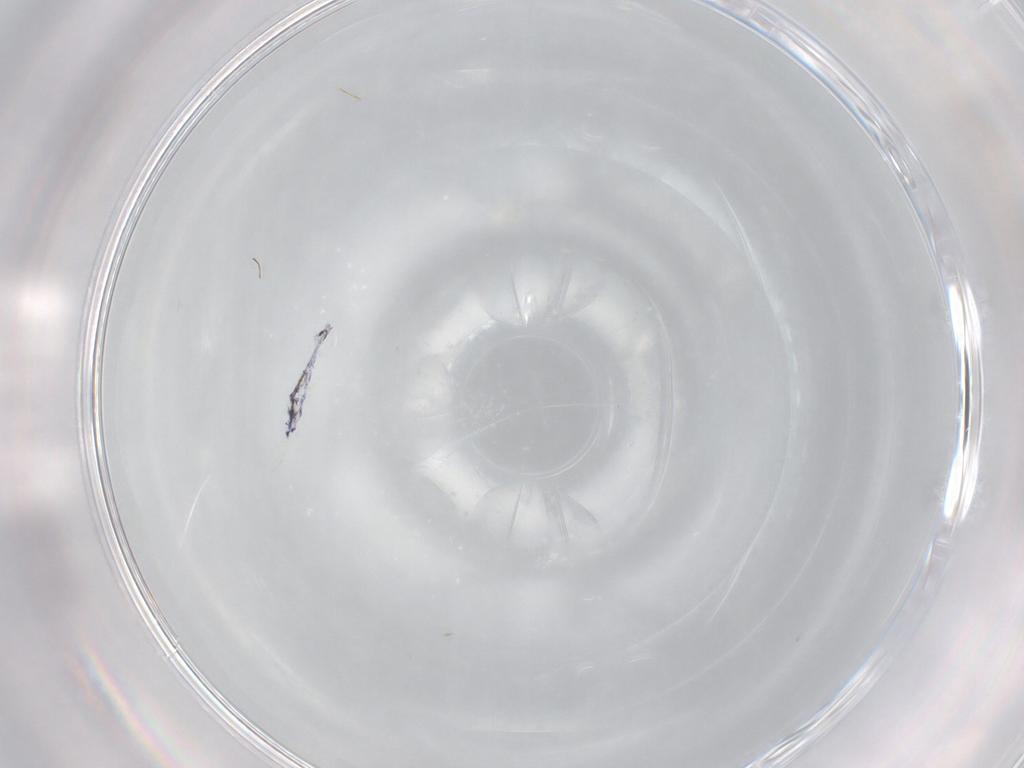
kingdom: Animalia
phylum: Arthropoda
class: Collembola
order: Entomobryomorpha
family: Entomobryidae
